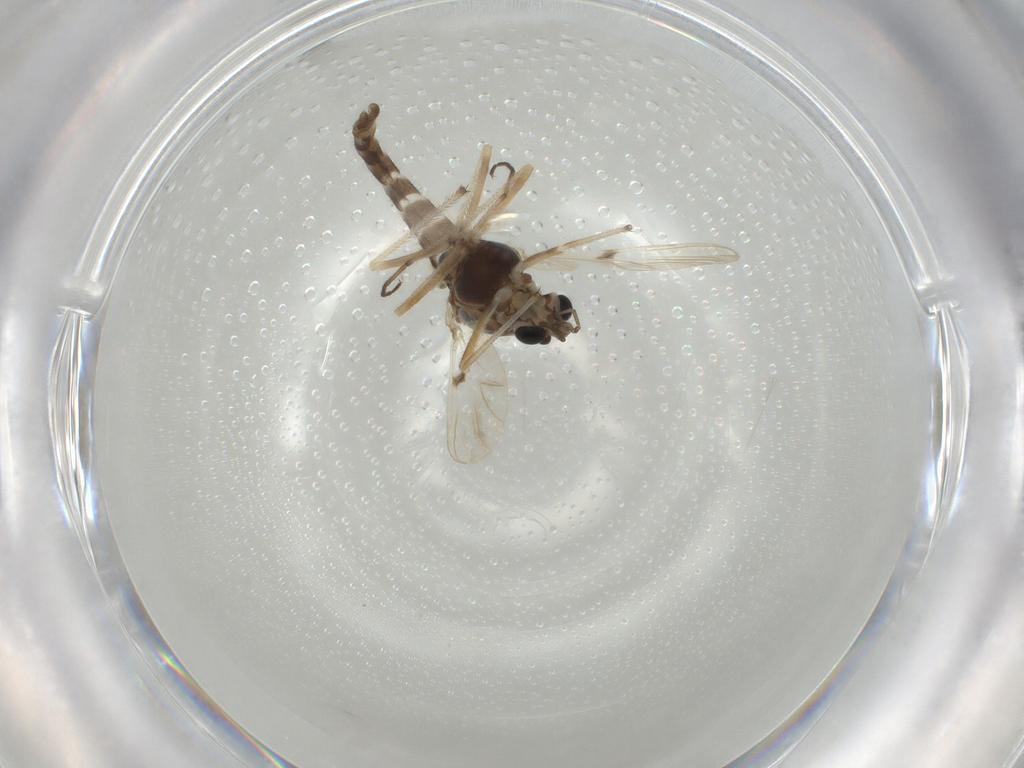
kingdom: Animalia
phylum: Arthropoda
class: Insecta
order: Diptera
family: Chironomidae
